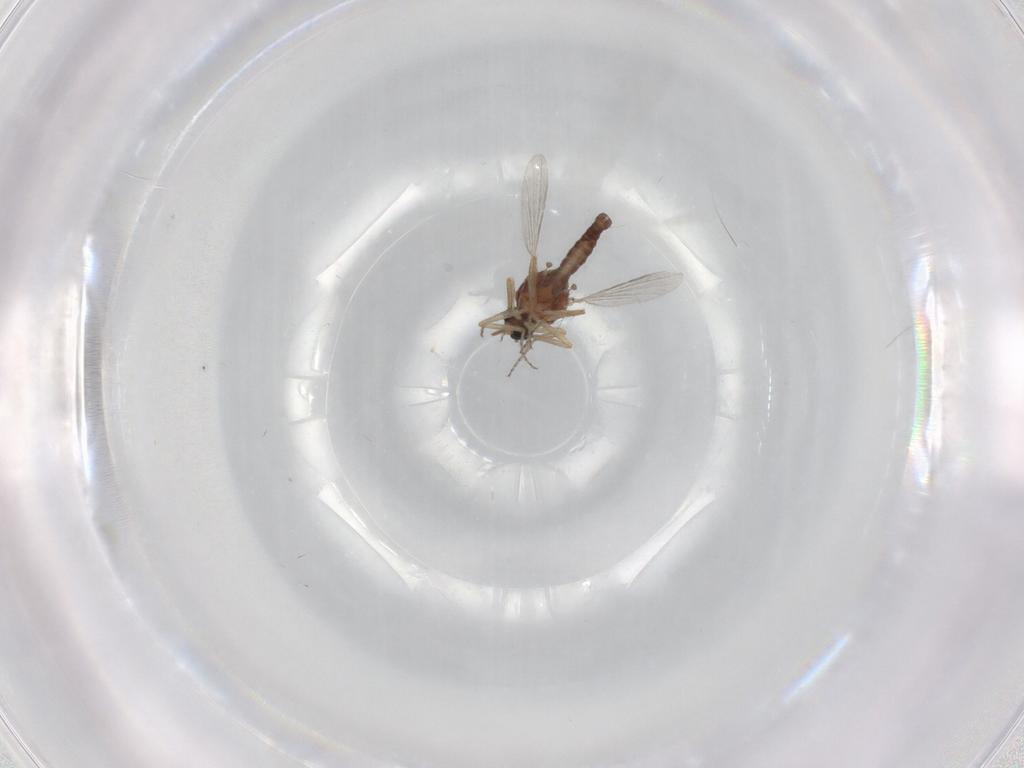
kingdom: Animalia
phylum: Arthropoda
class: Insecta
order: Diptera
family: Ceratopogonidae
